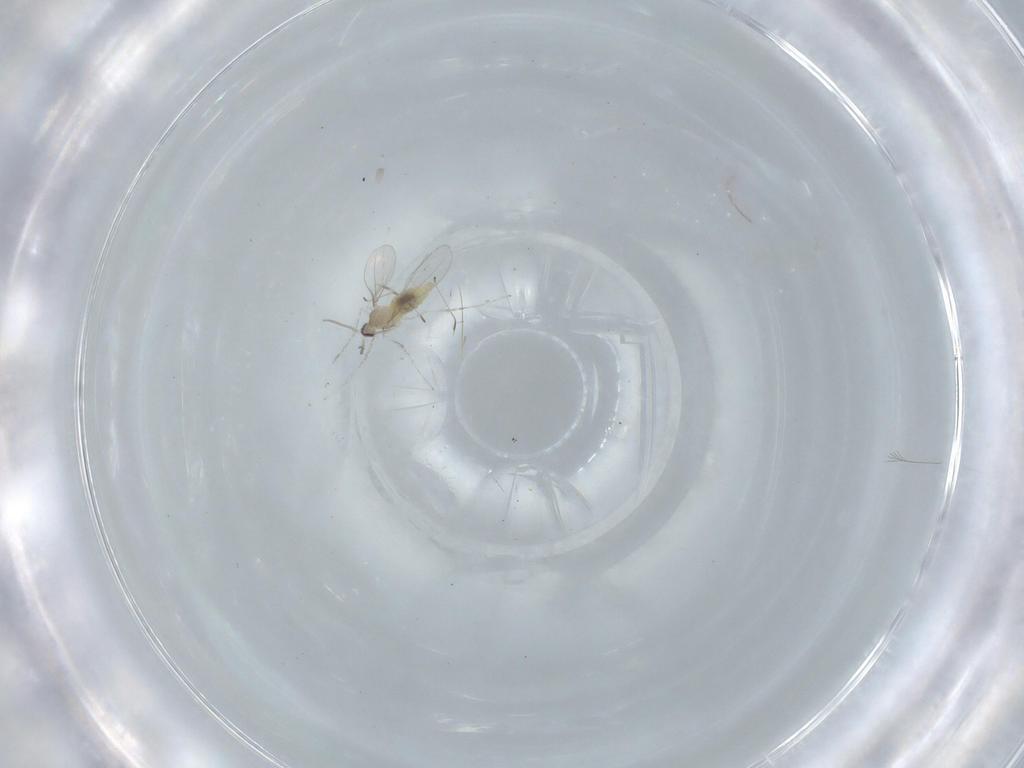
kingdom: Animalia
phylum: Arthropoda
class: Insecta
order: Diptera
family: Cecidomyiidae
